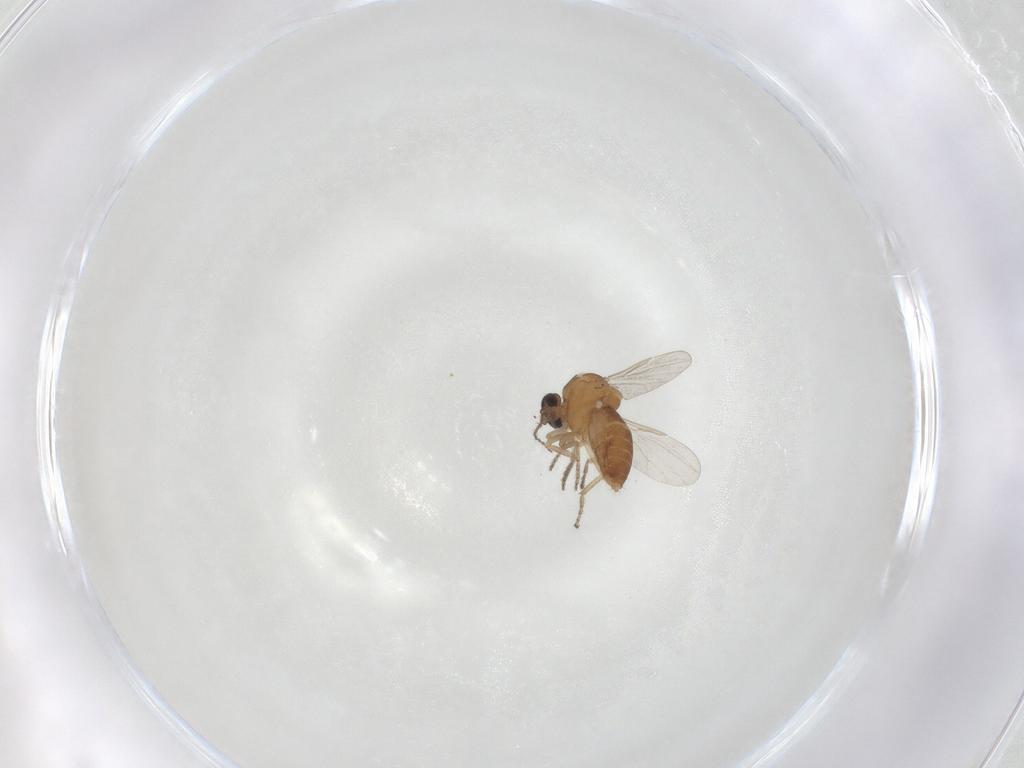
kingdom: Animalia
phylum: Arthropoda
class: Insecta
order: Diptera
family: Ceratopogonidae
